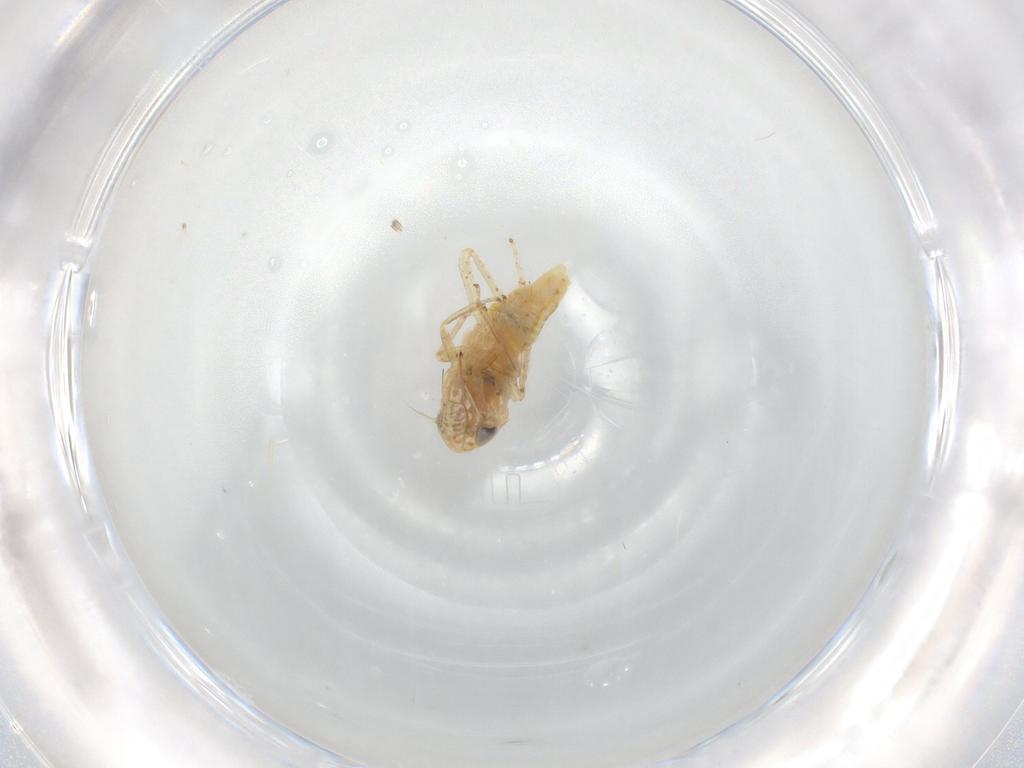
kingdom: Animalia
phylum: Arthropoda
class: Insecta
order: Hemiptera
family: Cicadellidae
